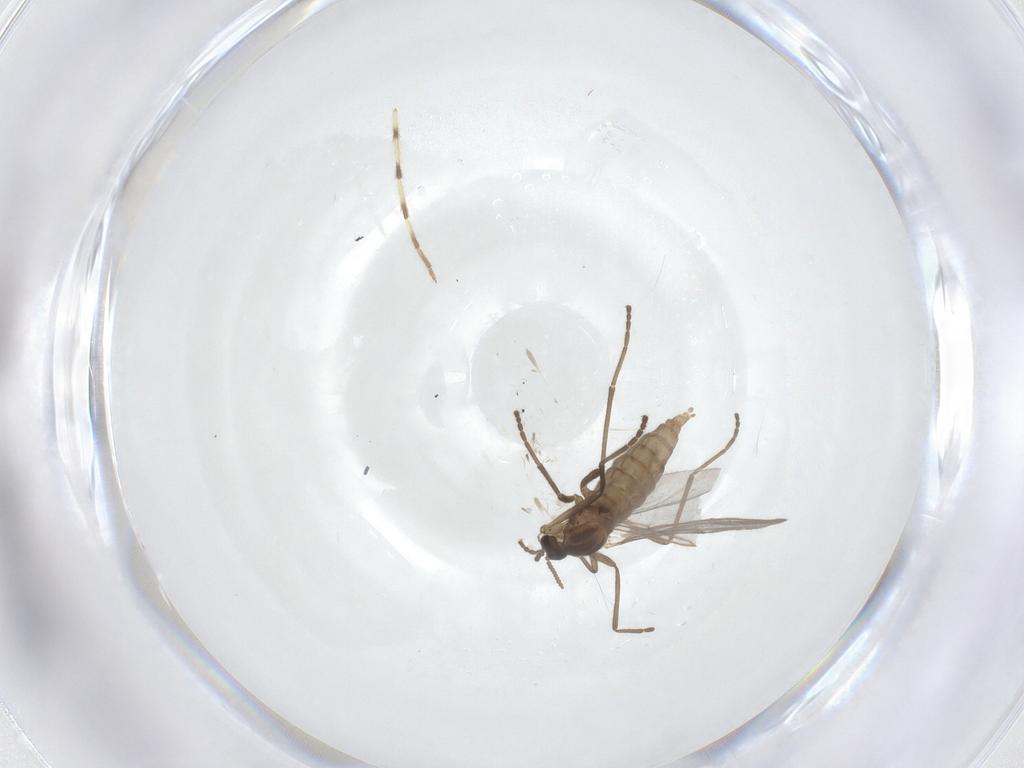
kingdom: Animalia
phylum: Arthropoda
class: Insecta
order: Diptera
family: Cecidomyiidae
